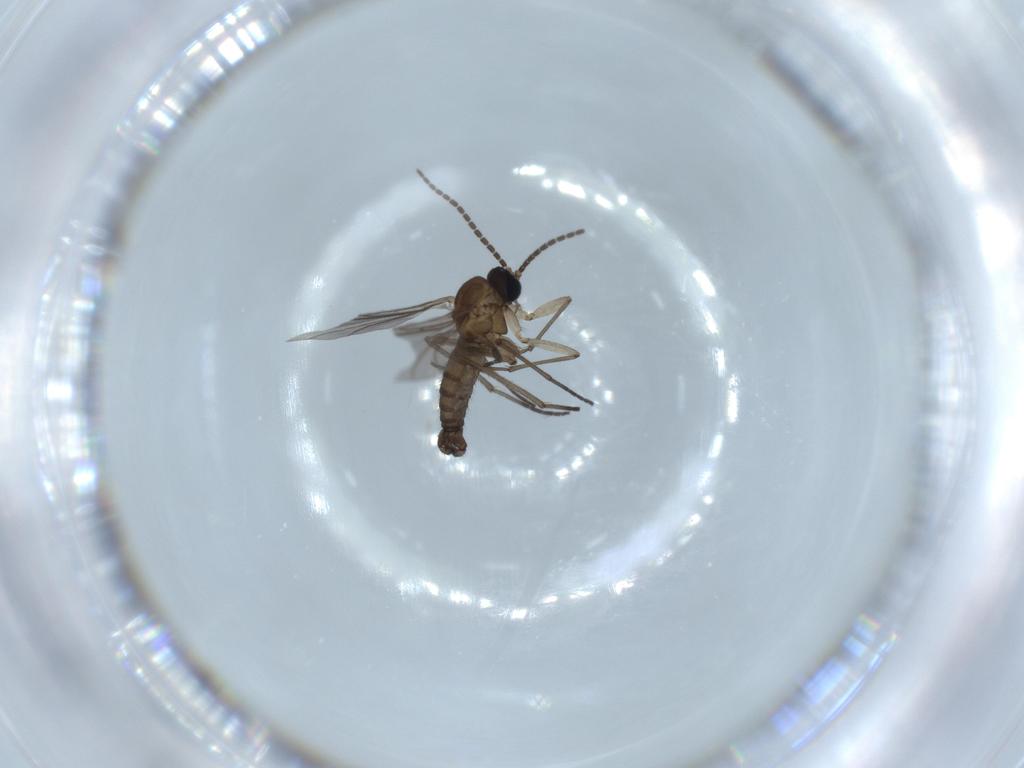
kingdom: Animalia
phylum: Arthropoda
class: Insecta
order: Diptera
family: Sciaridae
